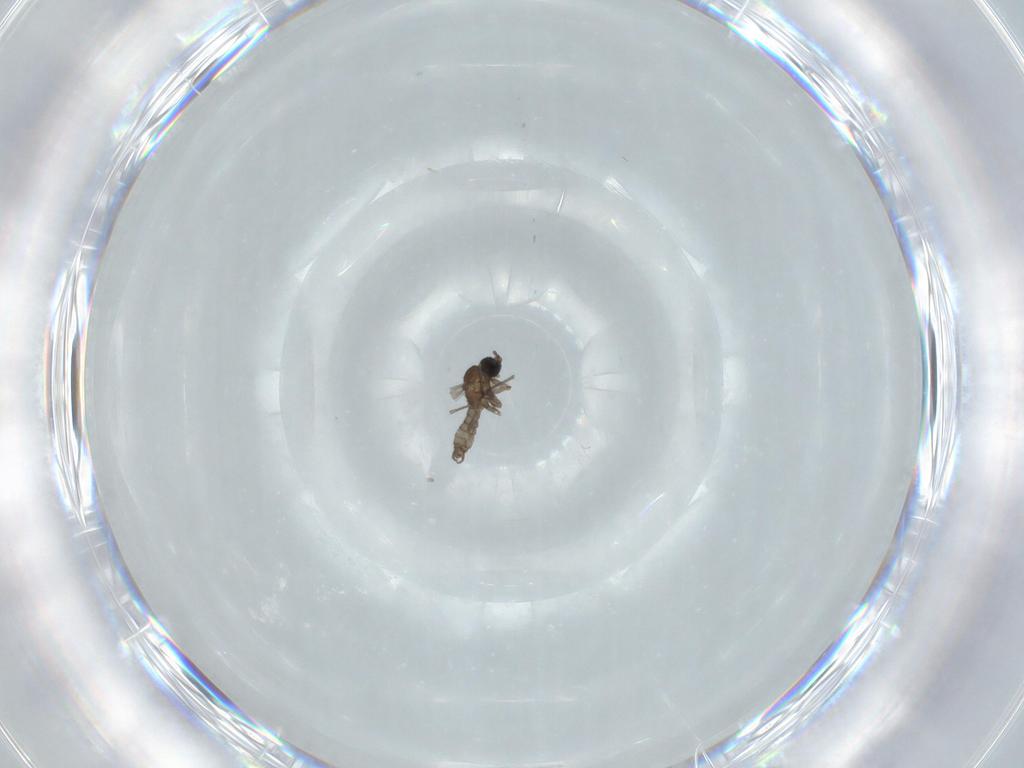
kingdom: Animalia
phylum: Arthropoda
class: Insecta
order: Diptera
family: Sciaridae
